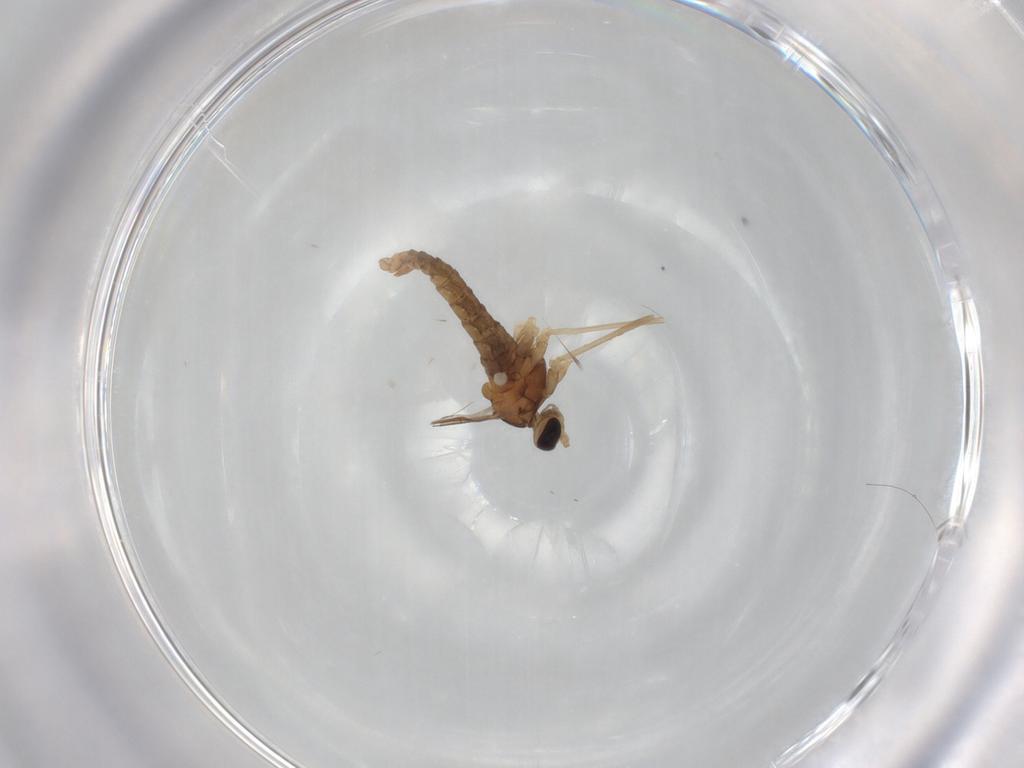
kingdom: Animalia
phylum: Arthropoda
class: Insecta
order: Diptera
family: Cecidomyiidae
